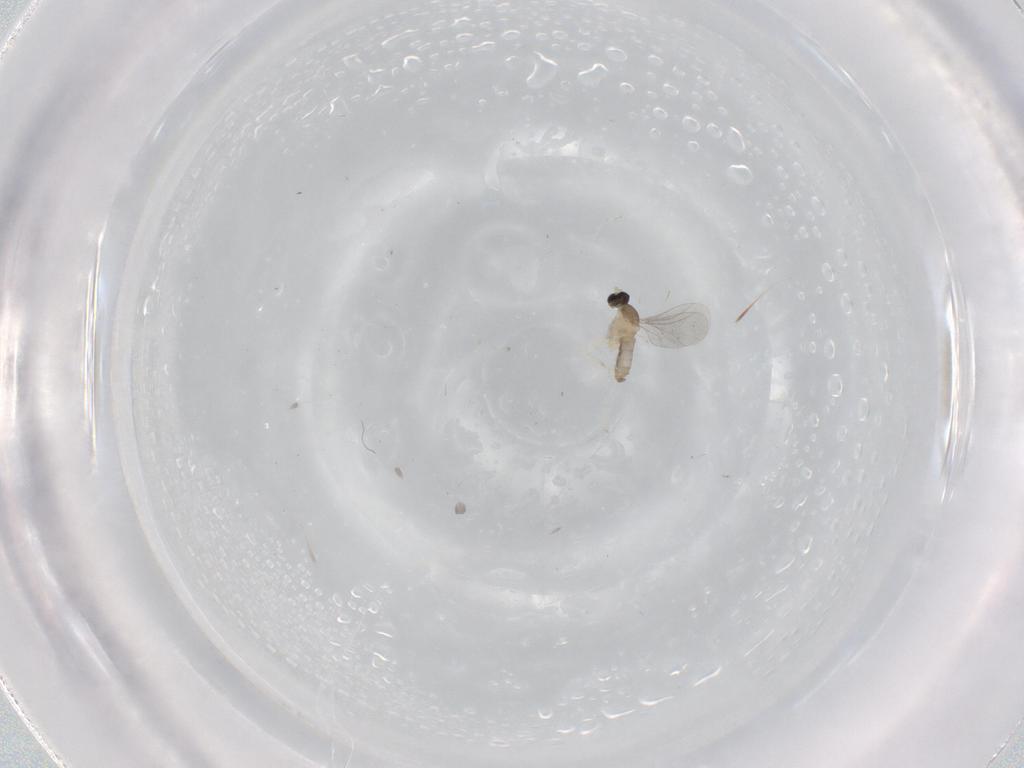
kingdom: Animalia
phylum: Arthropoda
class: Insecta
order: Diptera
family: Cecidomyiidae
